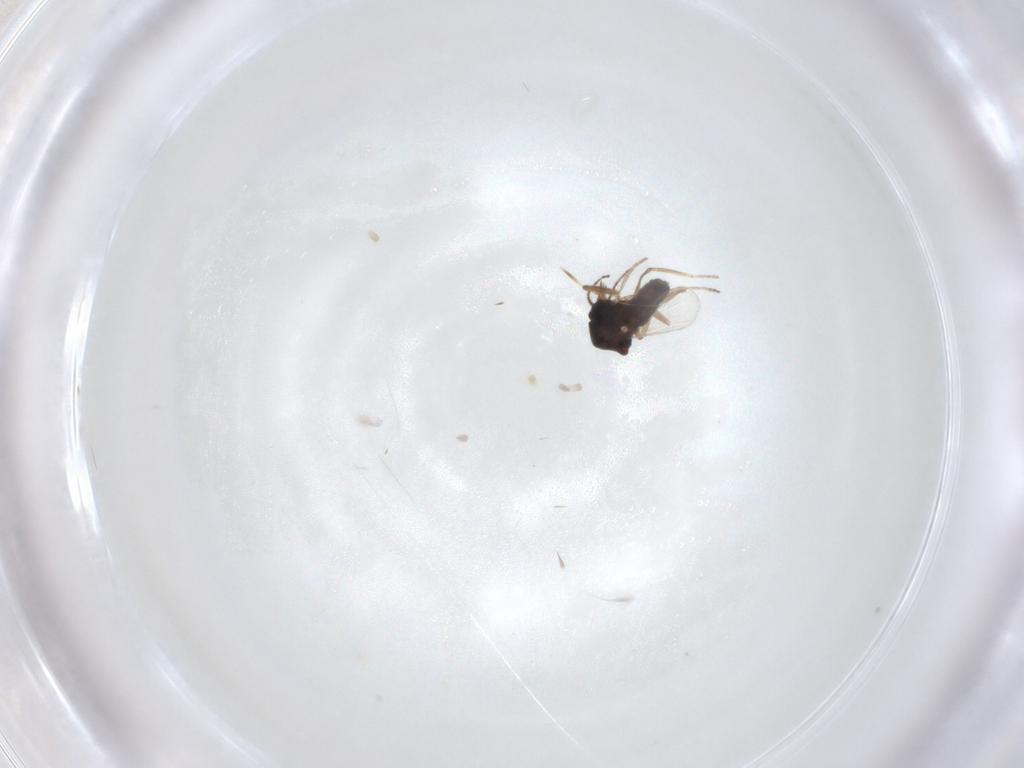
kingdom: Animalia
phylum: Arthropoda
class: Insecta
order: Diptera
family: Ceratopogonidae
